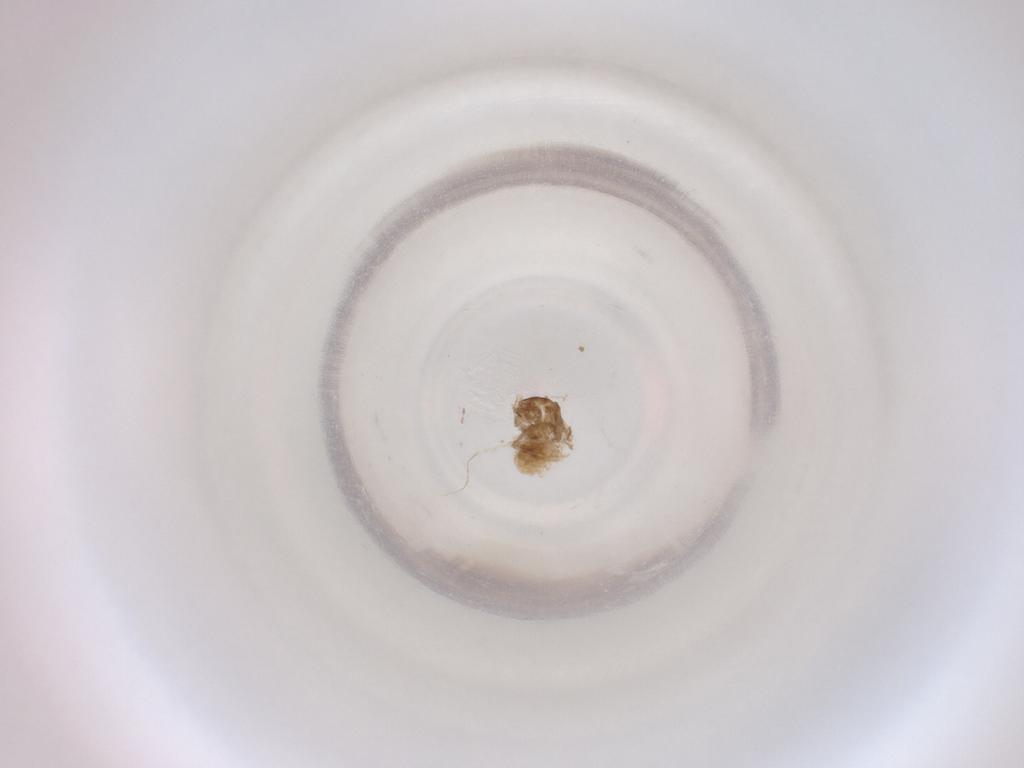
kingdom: Animalia
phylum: Arthropoda
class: Insecta
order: Diptera
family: Cecidomyiidae
